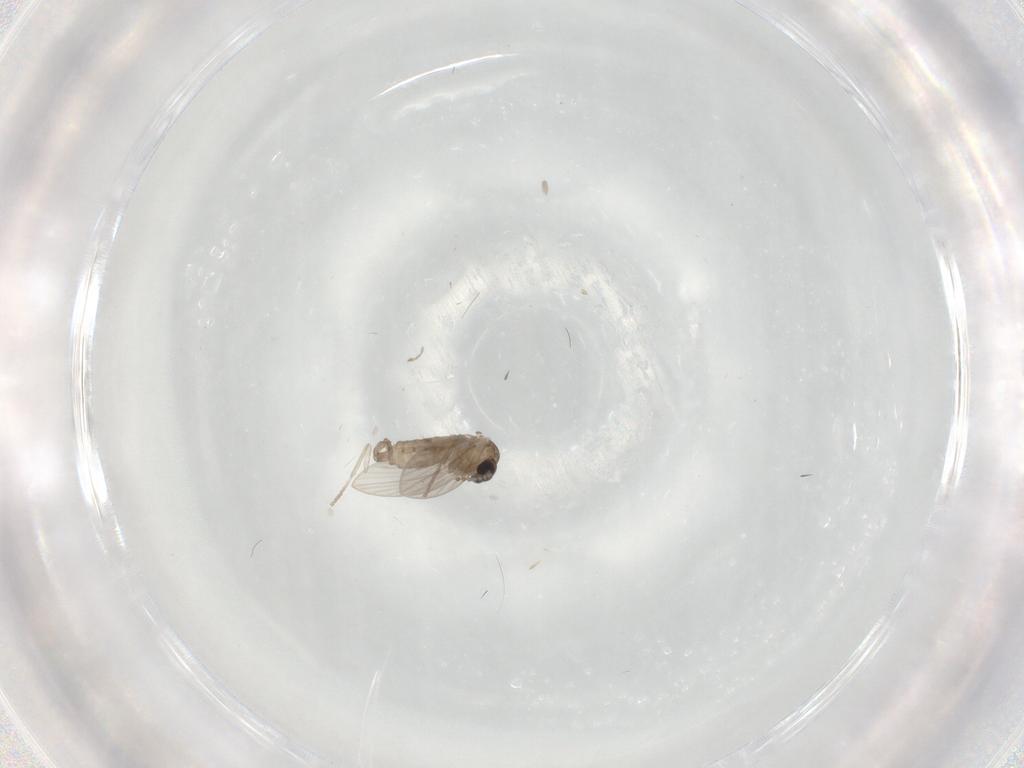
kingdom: Animalia
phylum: Arthropoda
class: Insecta
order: Diptera
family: Psychodidae
